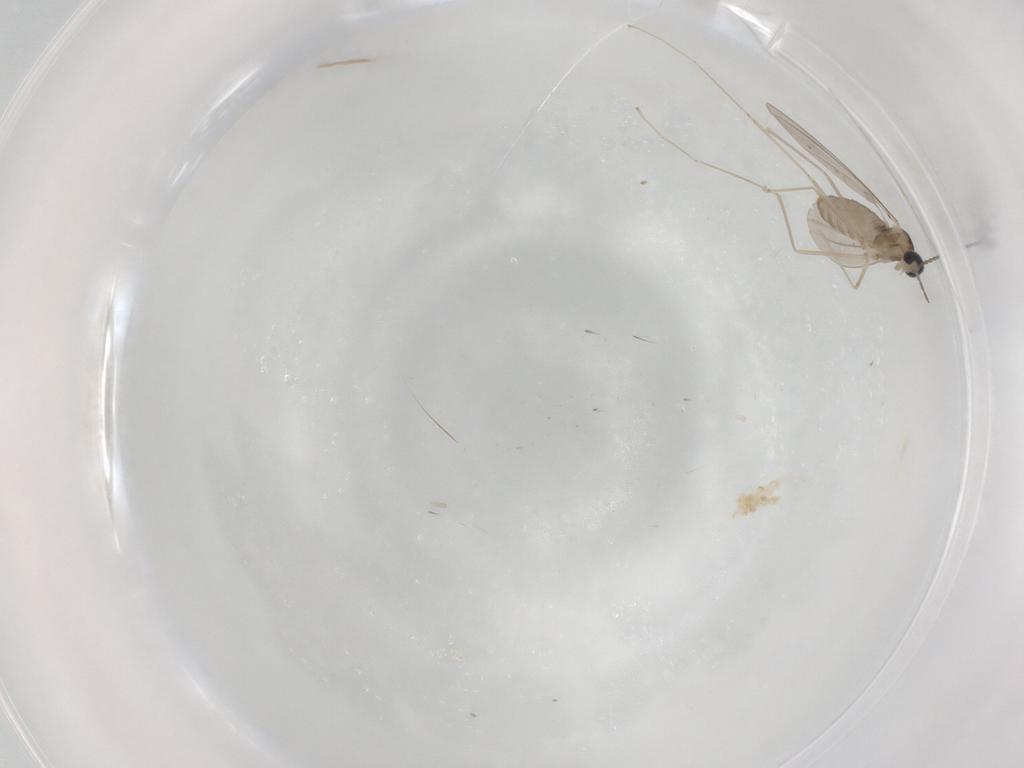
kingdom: Animalia
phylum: Arthropoda
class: Insecta
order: Diptera
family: Cecidomyiidae
